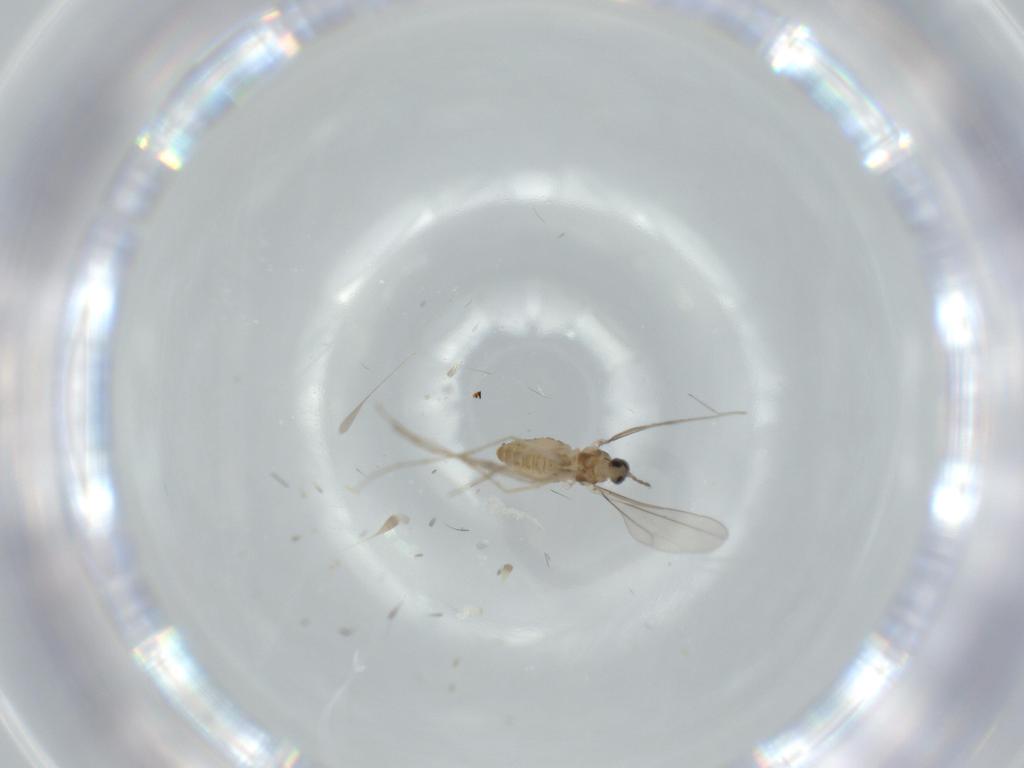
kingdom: Animalia
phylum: Arthropoda
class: Insecta
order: Diptera
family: Cecidomyiidae
